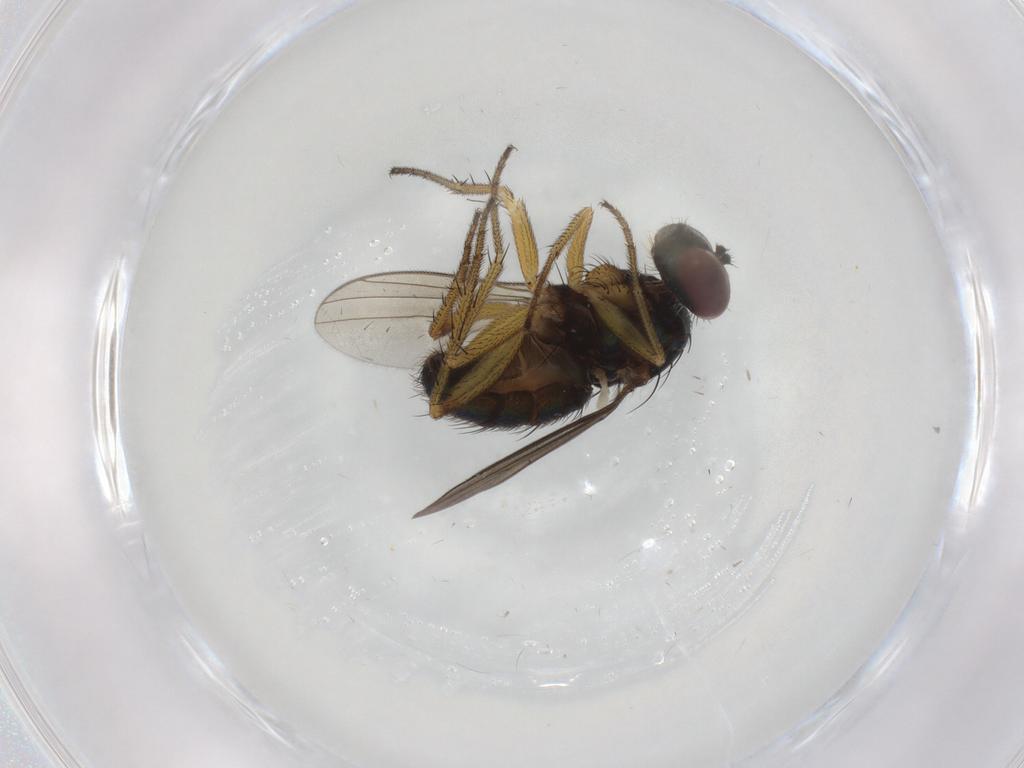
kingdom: Animalia
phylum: Arthropoda
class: Insecta
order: Diptera
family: Dolichopodidae
